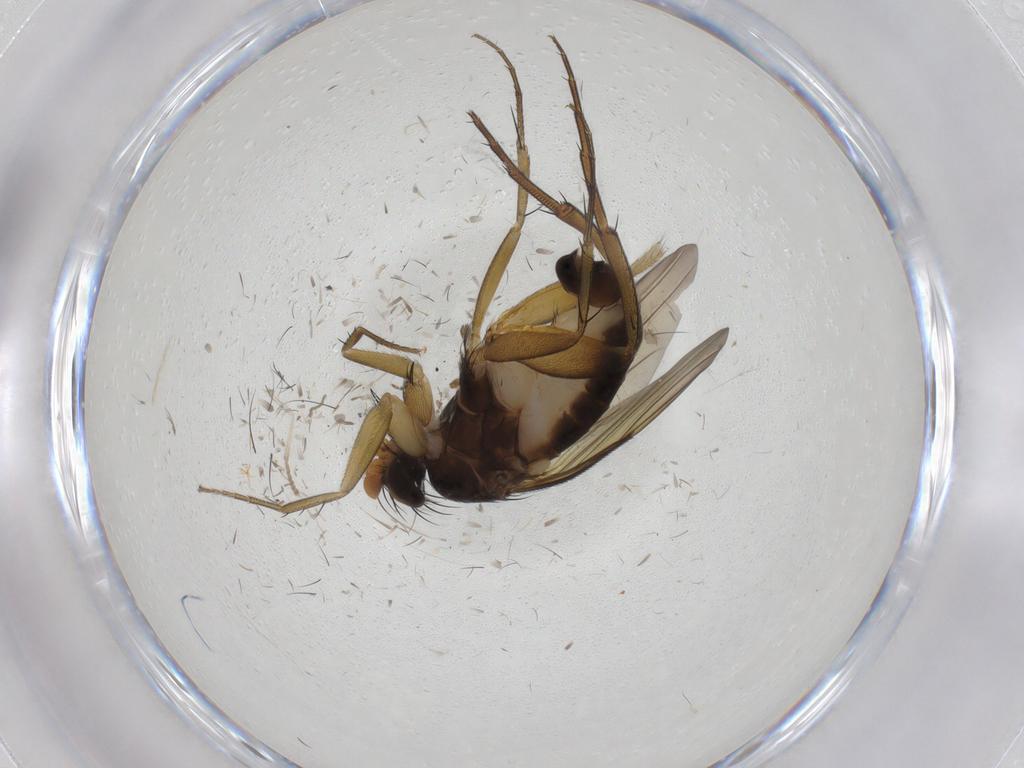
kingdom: Animalia
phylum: Arthropoda
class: Insecta
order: Diptera
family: Phoridae
